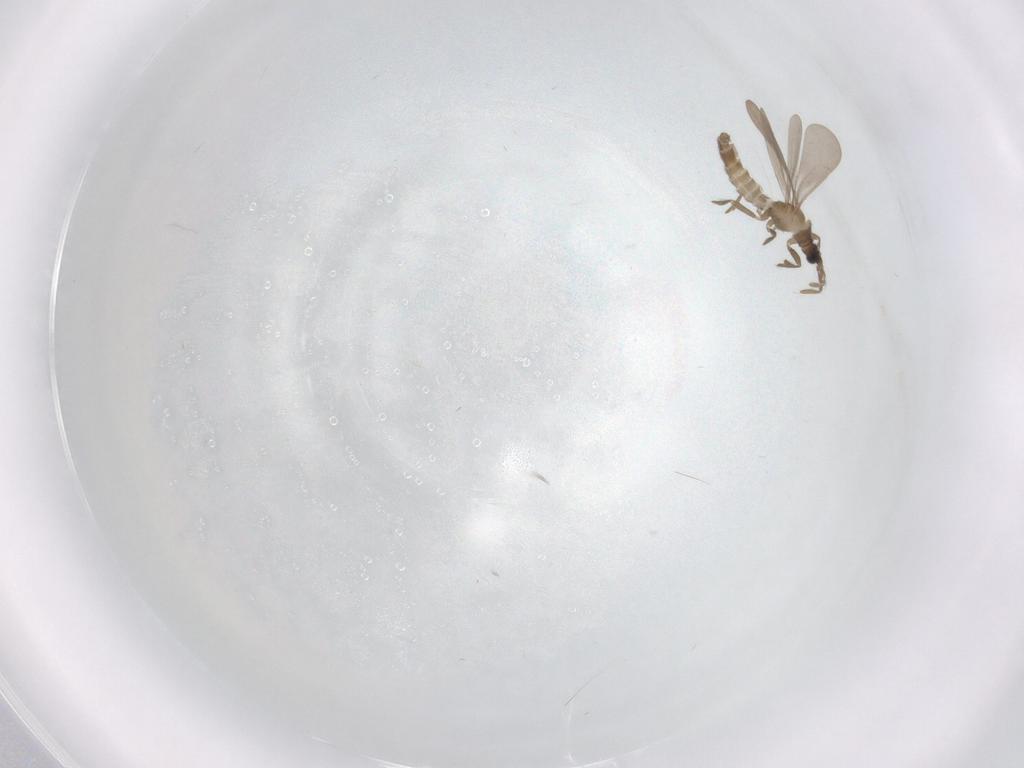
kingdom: Animalia
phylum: Arthropoda
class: Insecta
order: Hemiptera
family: Enicocephalidae
